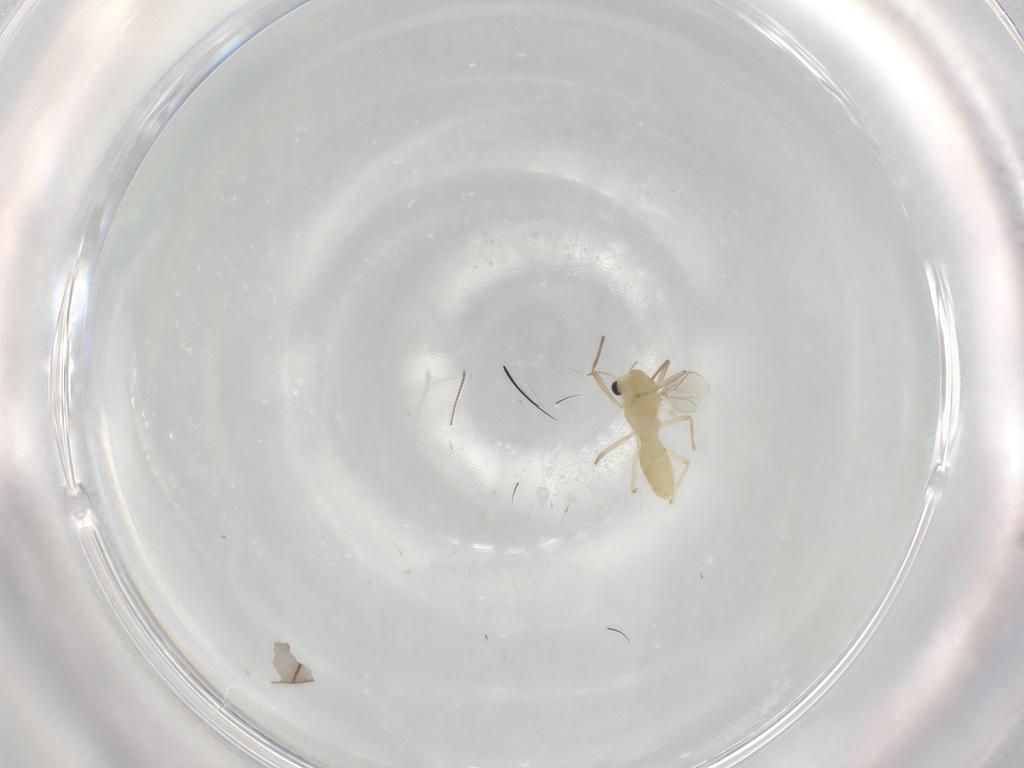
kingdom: Animalia
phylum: Arthropoda
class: Insecta
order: Diptera
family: Chironomidae
